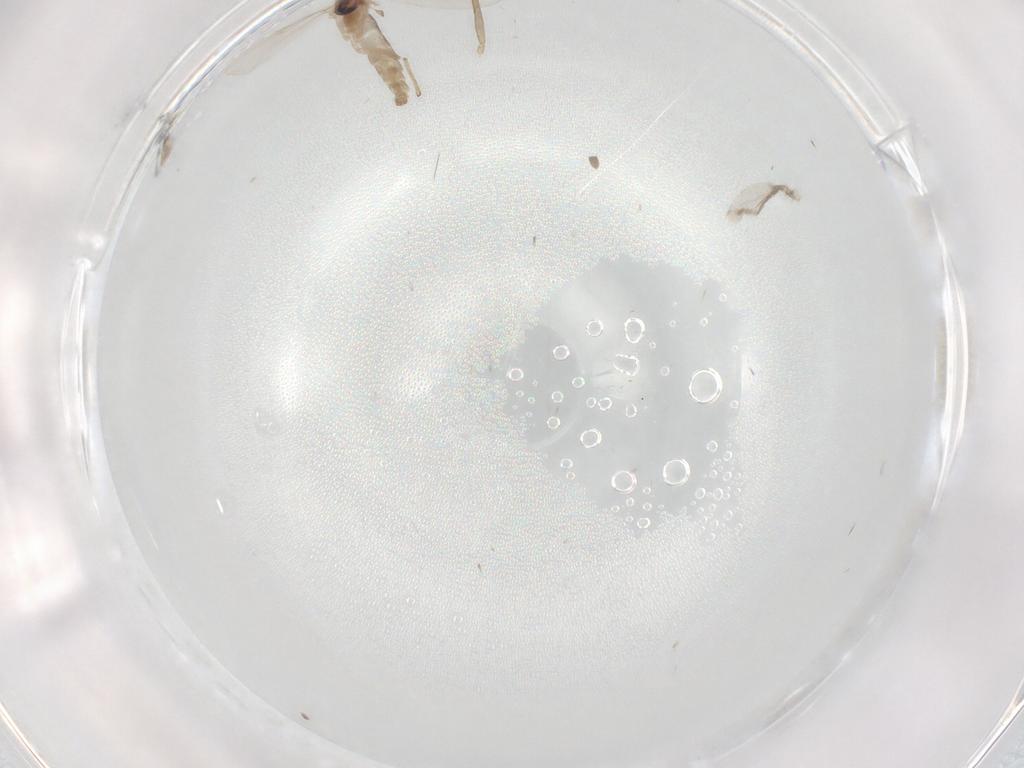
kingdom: Animalia
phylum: Arthropoda
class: Insecta
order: Diptera
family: Chironomidae
